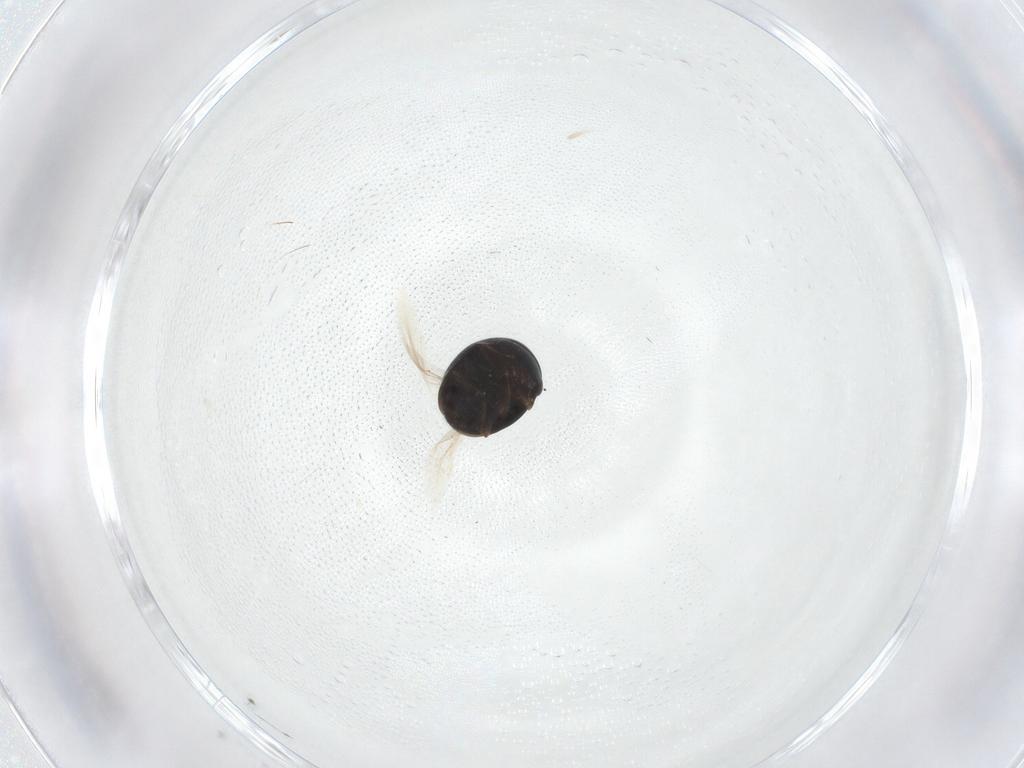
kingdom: Animalia
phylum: Arthropoda
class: Insecta
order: Coleoptera
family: Cybocephalidae
